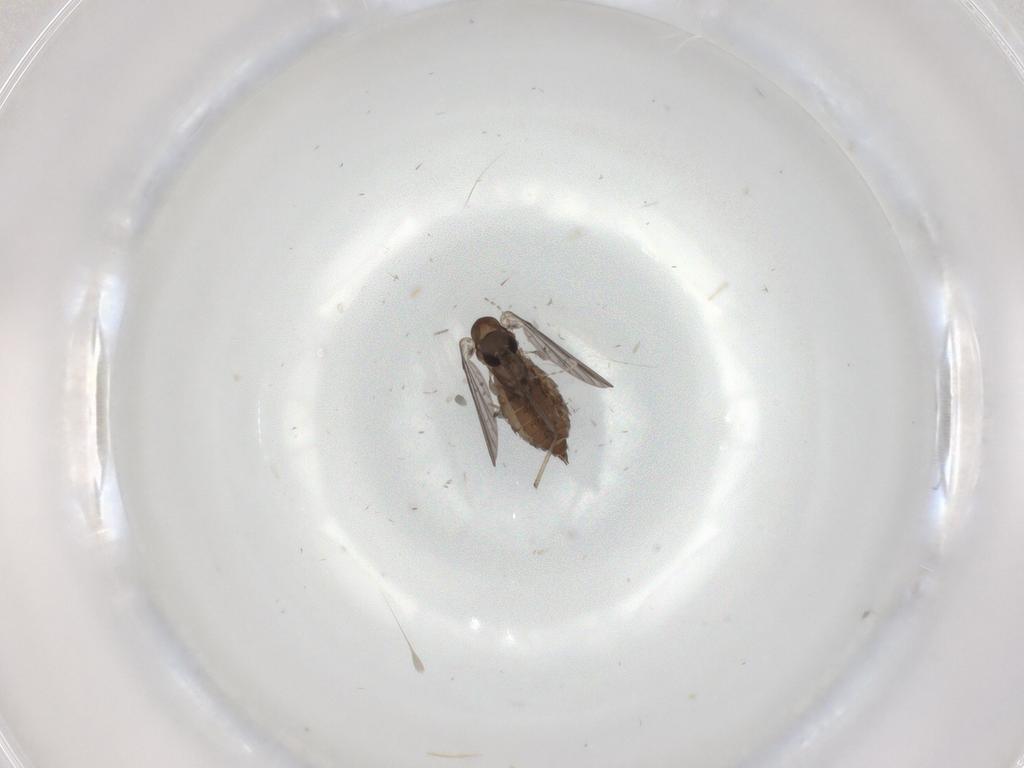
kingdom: Animalia
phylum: Arthropoda
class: Insecta
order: Diptera
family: Phoridae
